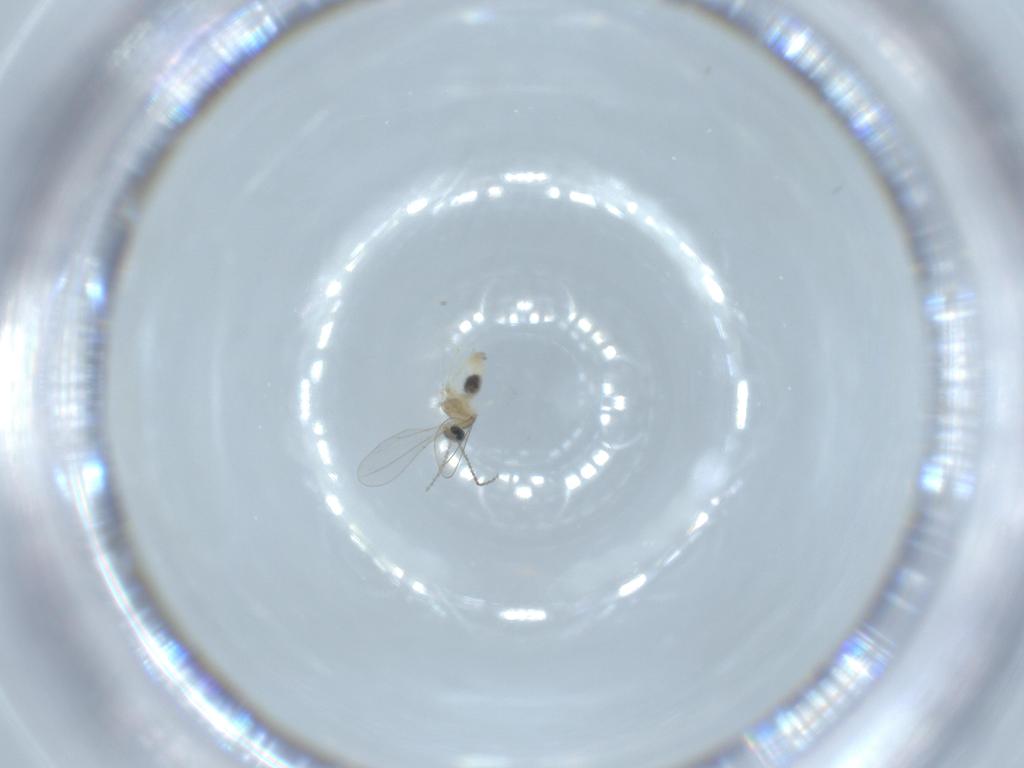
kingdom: Animalia
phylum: Arthropoda
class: Insecta
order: Diptera
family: Cecidomyiidae
